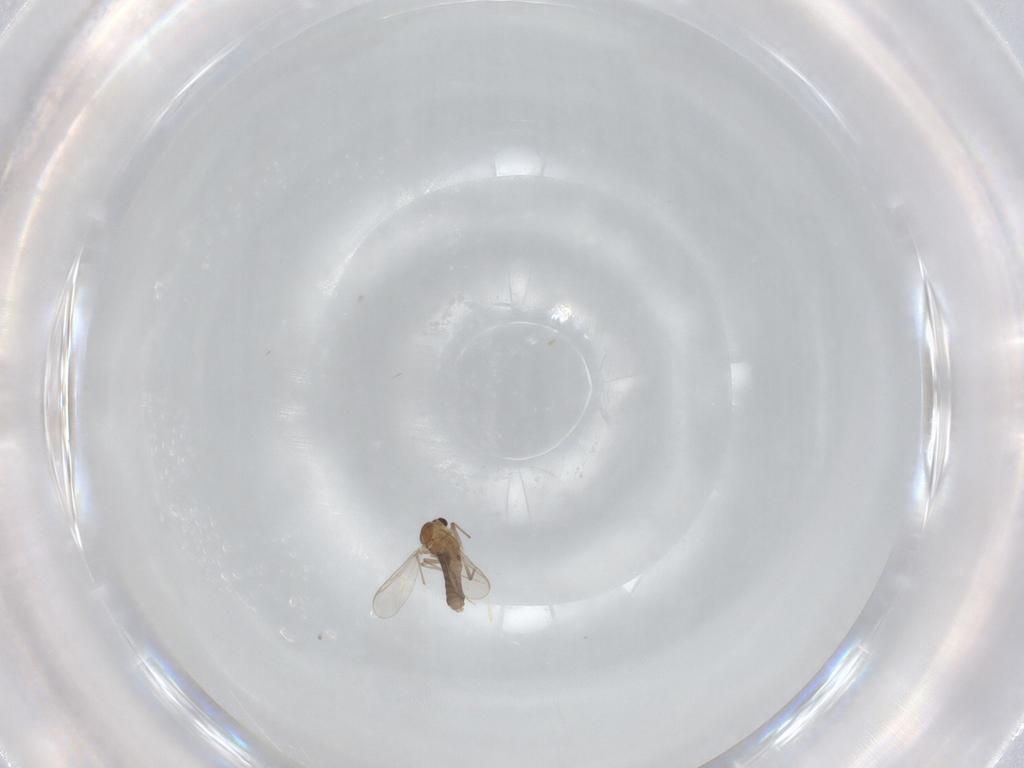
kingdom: Animalia
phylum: Arthropoda
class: Insecta
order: Diptera
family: Chironomidae
